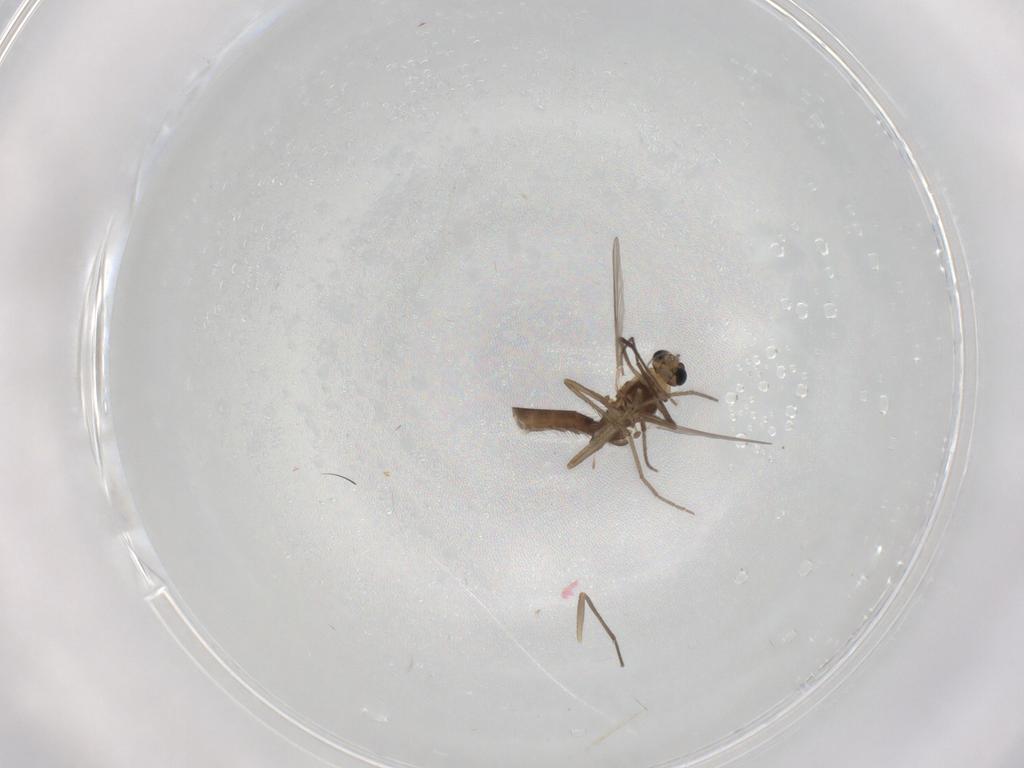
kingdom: Animalia
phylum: Arthropoda
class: Insecta
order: Diptera
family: Chironomidae
